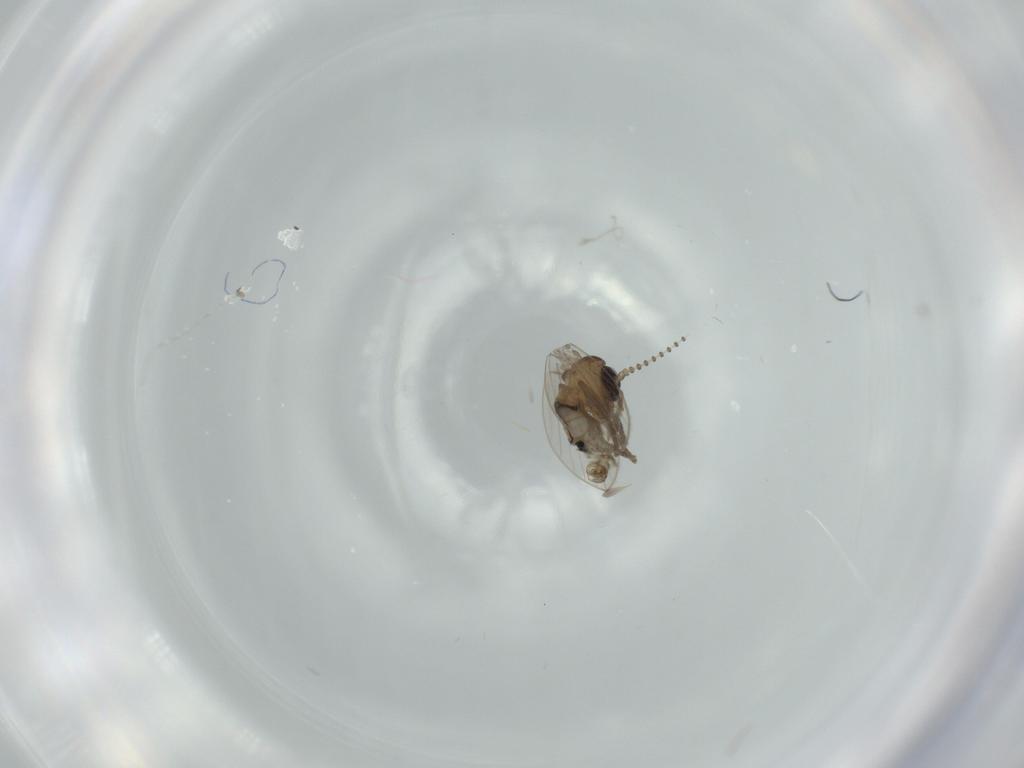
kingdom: Animalia
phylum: Arthropoda
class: Insecta
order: Diptera
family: Psychodidae
